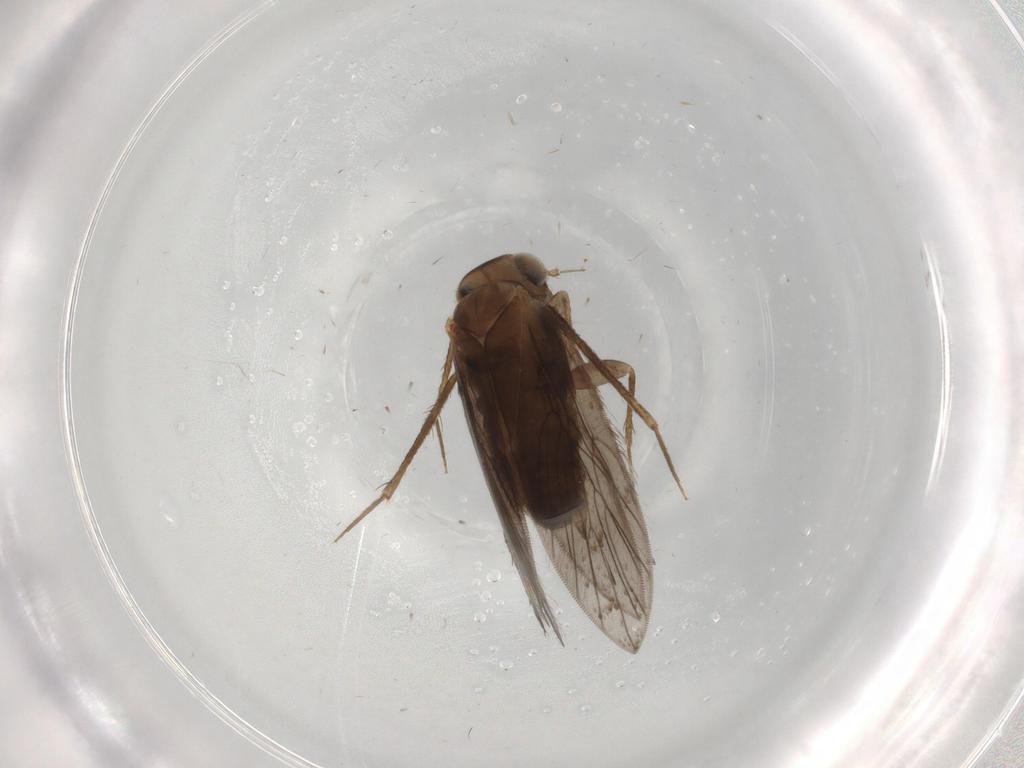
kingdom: Animalia
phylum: Arthropoda
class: Insecta
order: Psocodea
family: Lepidopsocidae
